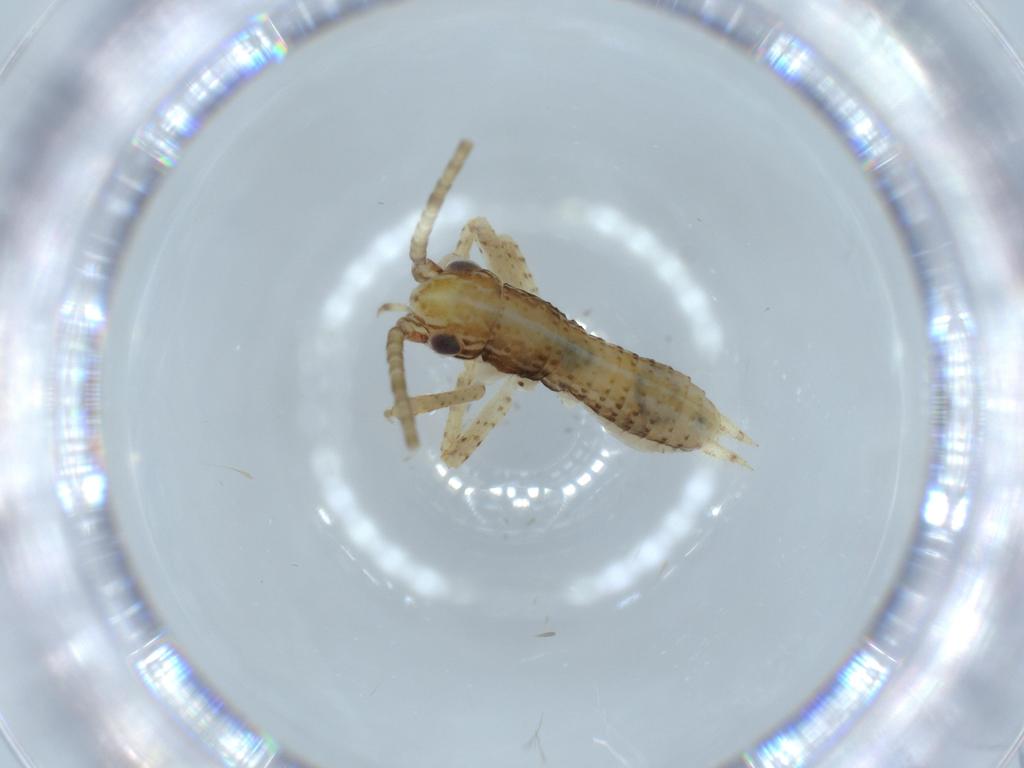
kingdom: Animalia
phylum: Arthropoda
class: Insecta
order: Orthoptera
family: Gryllidae
